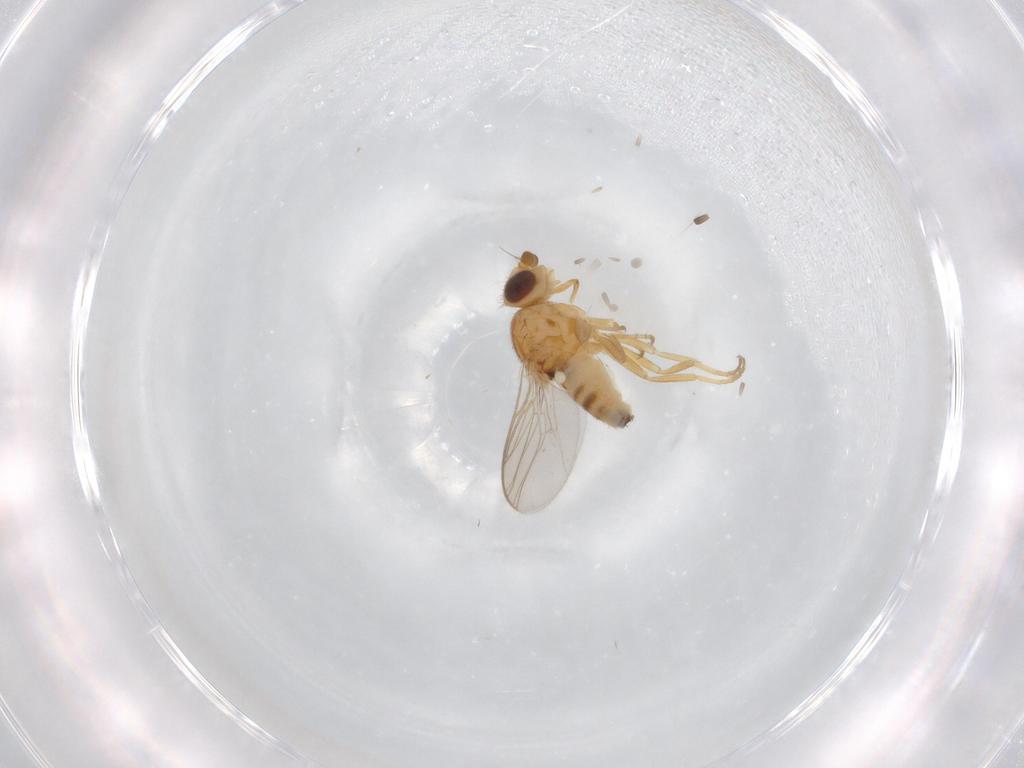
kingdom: Animalia
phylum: Arthropoda
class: Insecta
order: Diptera
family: Chloropidae
